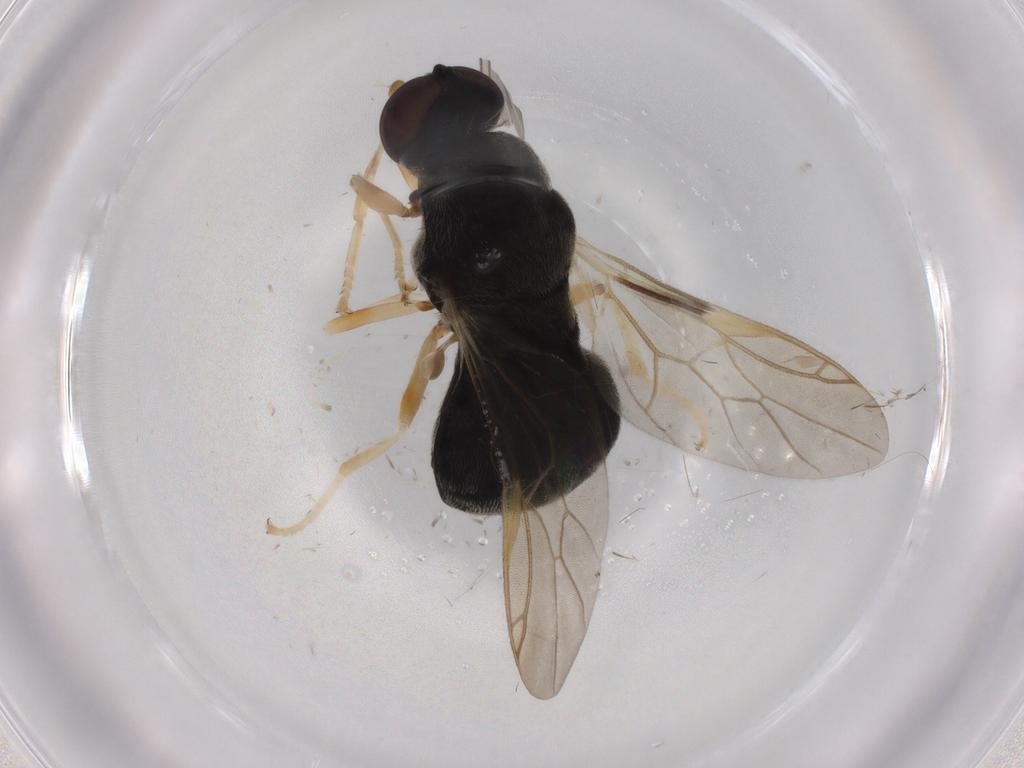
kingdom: Animalia
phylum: Arthropoda
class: Insecta
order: Diptera
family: Stratiomyidae
